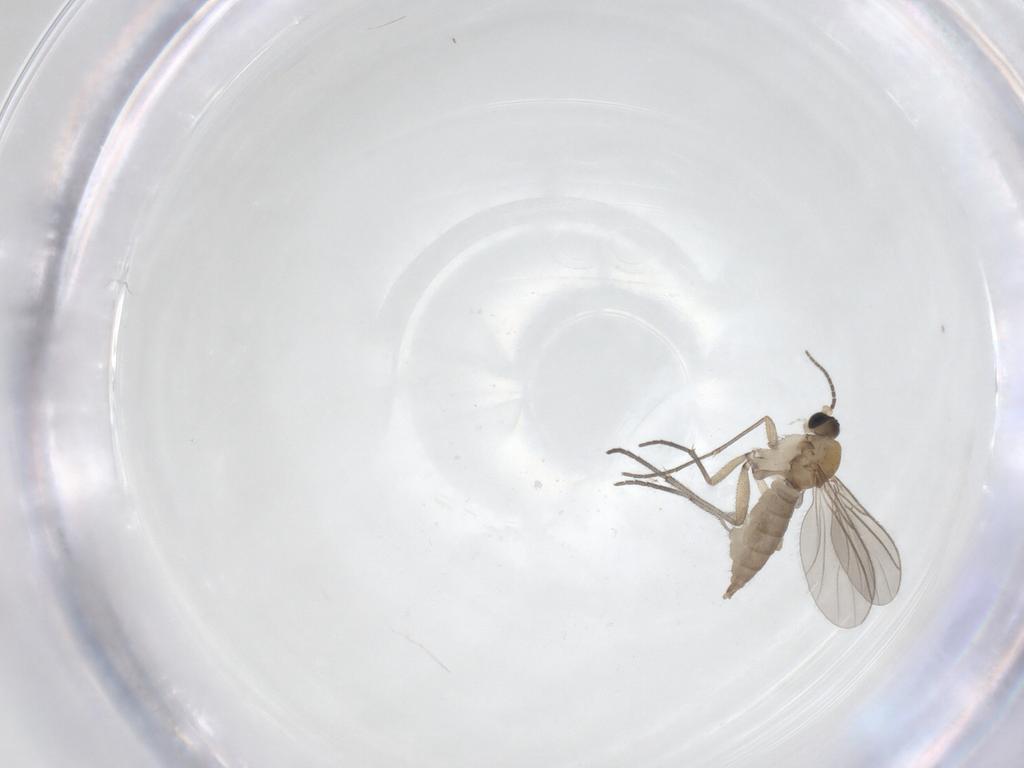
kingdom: Animalia
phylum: Arthropoda
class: Insecta
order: Diptera
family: Sciaridae
